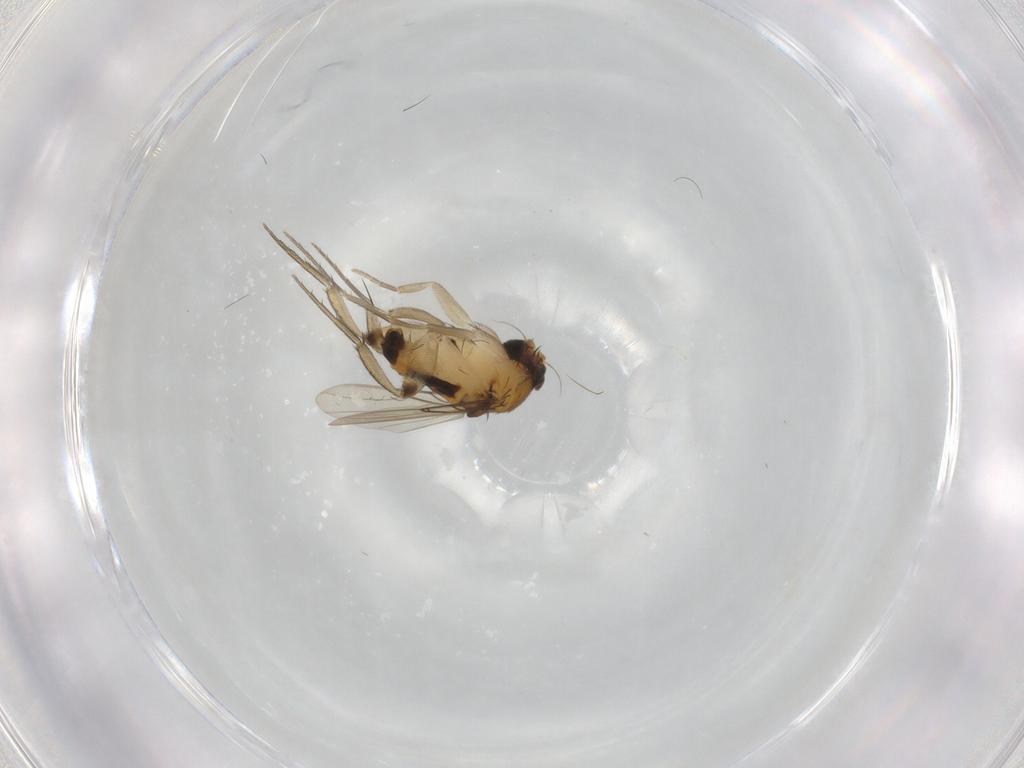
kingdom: Animalia
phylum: Arthropoda
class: Insecta
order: Diptera
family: Phoridae
